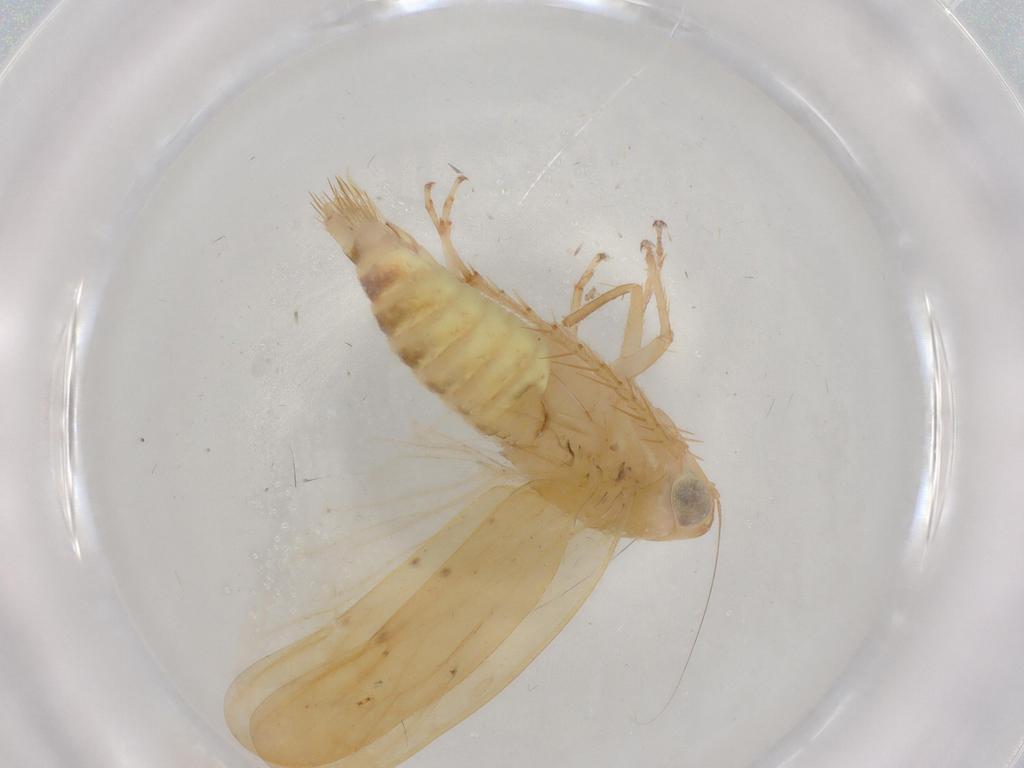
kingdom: Animalia
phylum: Arthropoda
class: Insecta
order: Hemiptera
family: Cicadellidae
